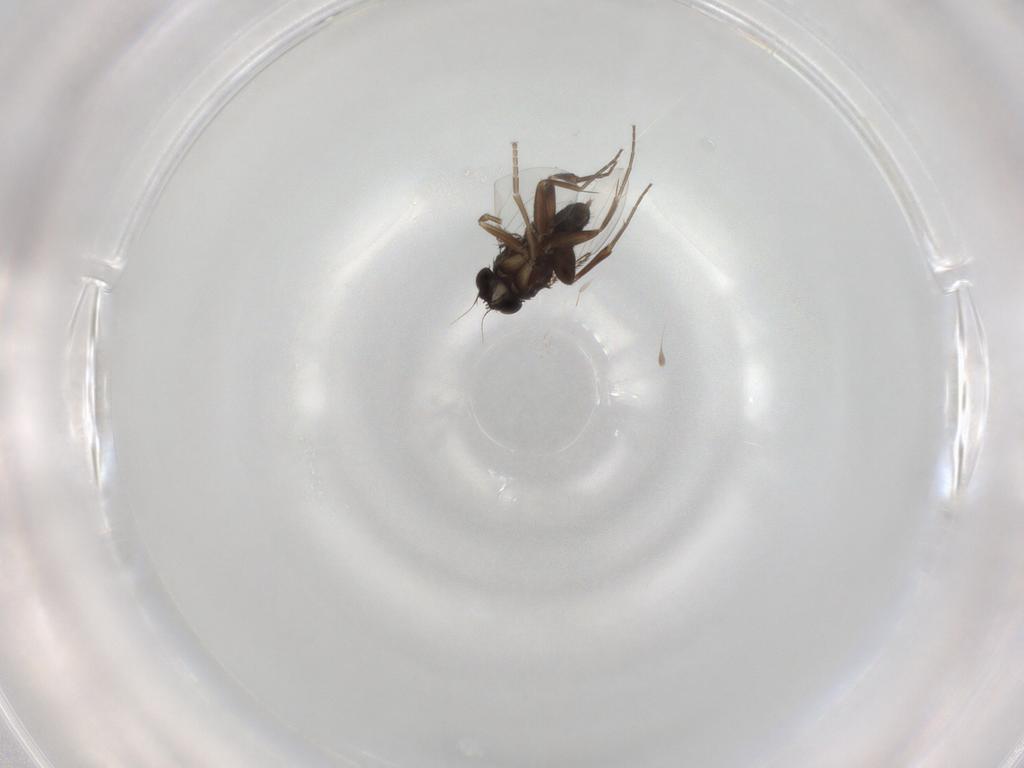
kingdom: Animalia
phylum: Arthropoda
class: Insecta
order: Diptera
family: Phoridae
